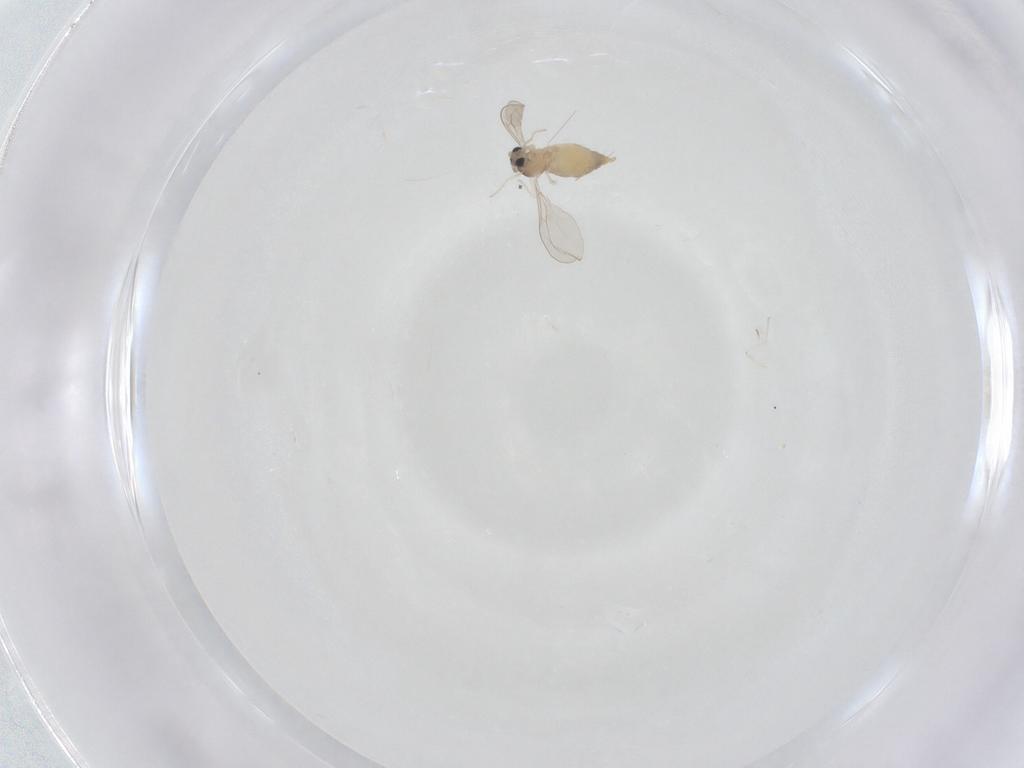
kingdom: Animalia
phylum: Arthropoda
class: Insecta
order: Diptera
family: Cecidomyiidae
